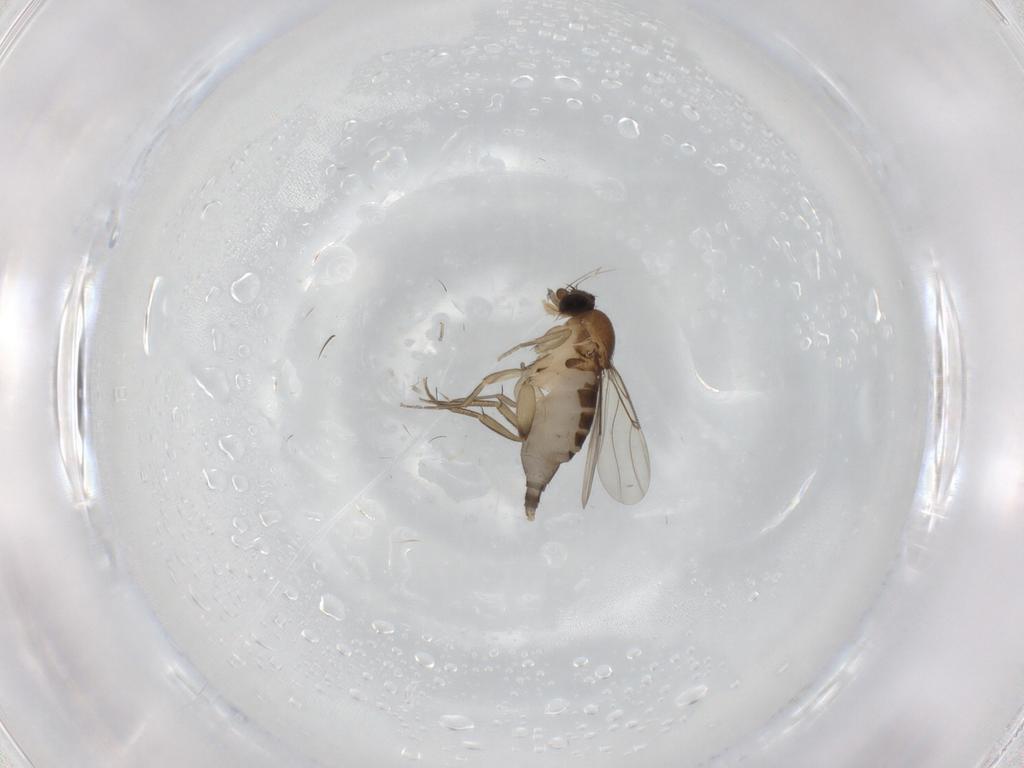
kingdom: Animalia
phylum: Arthropoda
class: Insecta
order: Diptera
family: Phoridae
